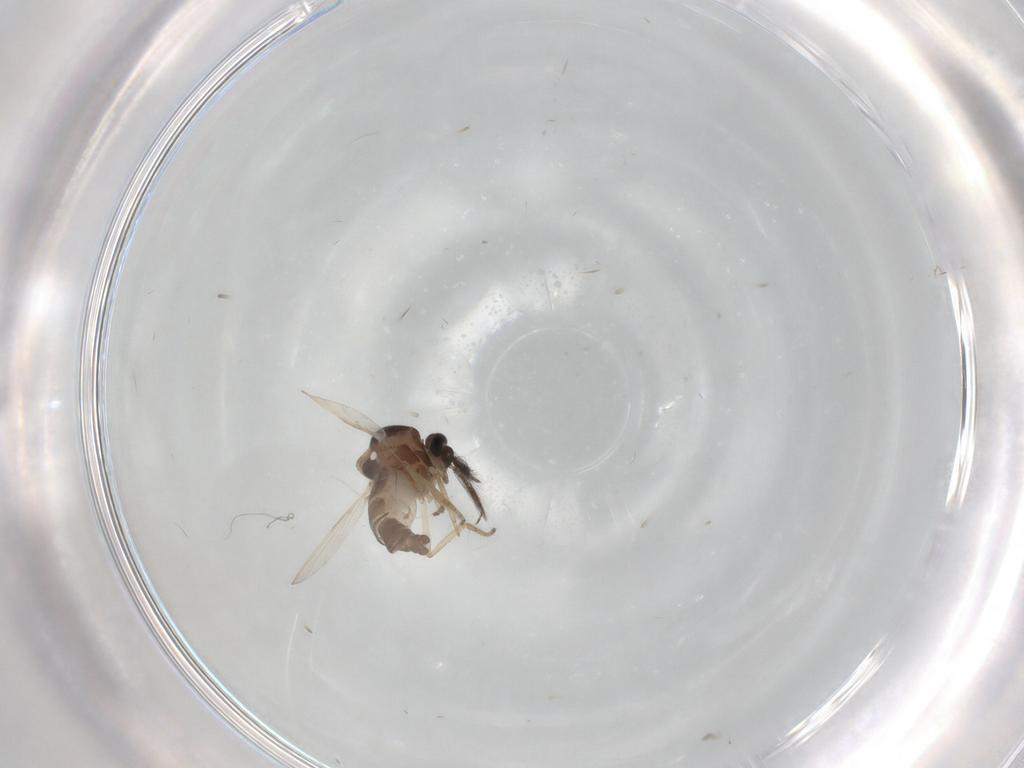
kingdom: Animalia
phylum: Arthropoda
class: Insecta
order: Diptera
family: Ceratopogonidae
